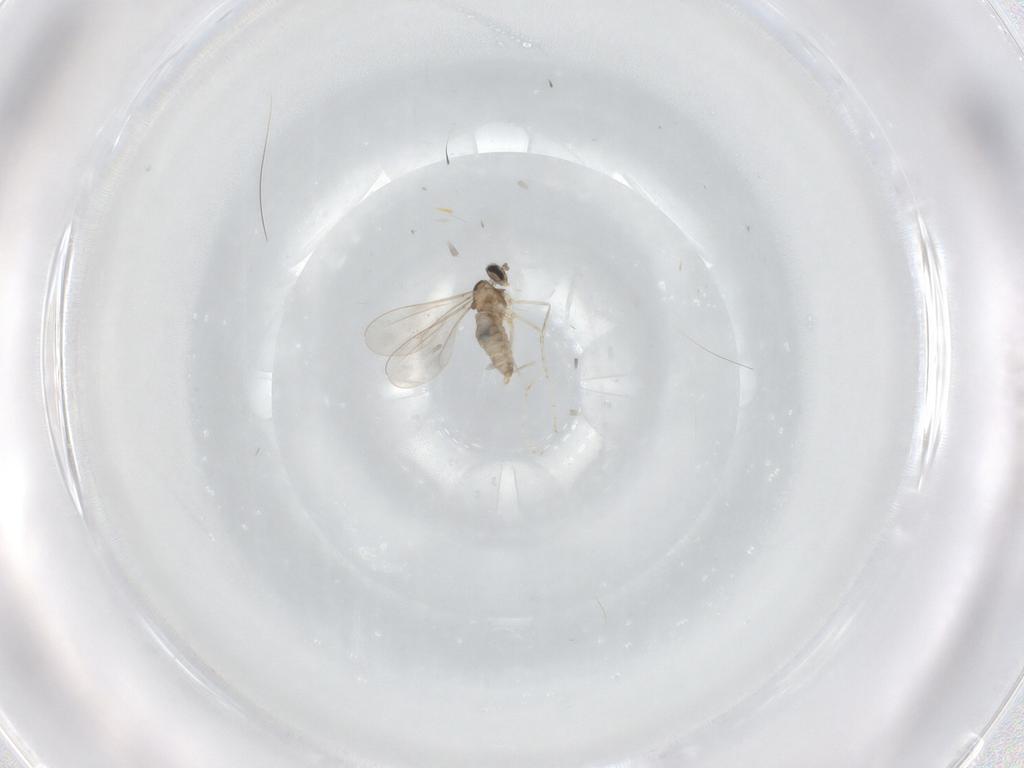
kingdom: Animalia
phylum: Arthropoda
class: Insecta
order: Diptera
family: Cecidomyiidae
